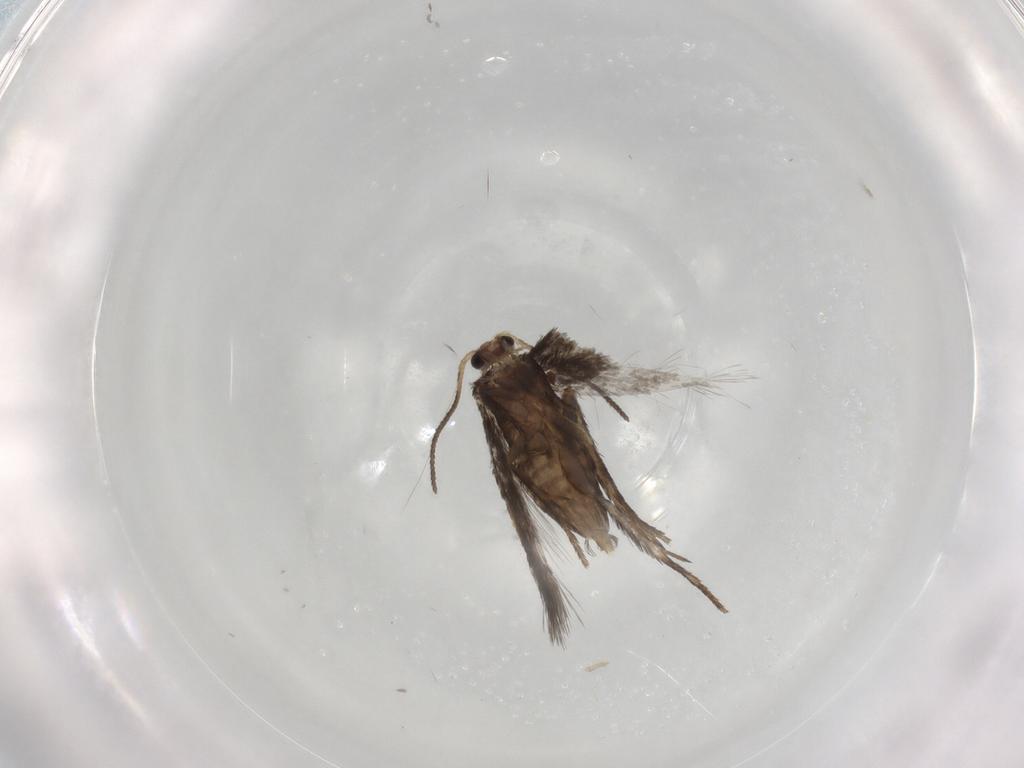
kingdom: Animalia
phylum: Arthropoda
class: Insecta
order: Lepidoptera
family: Nepticulidae
